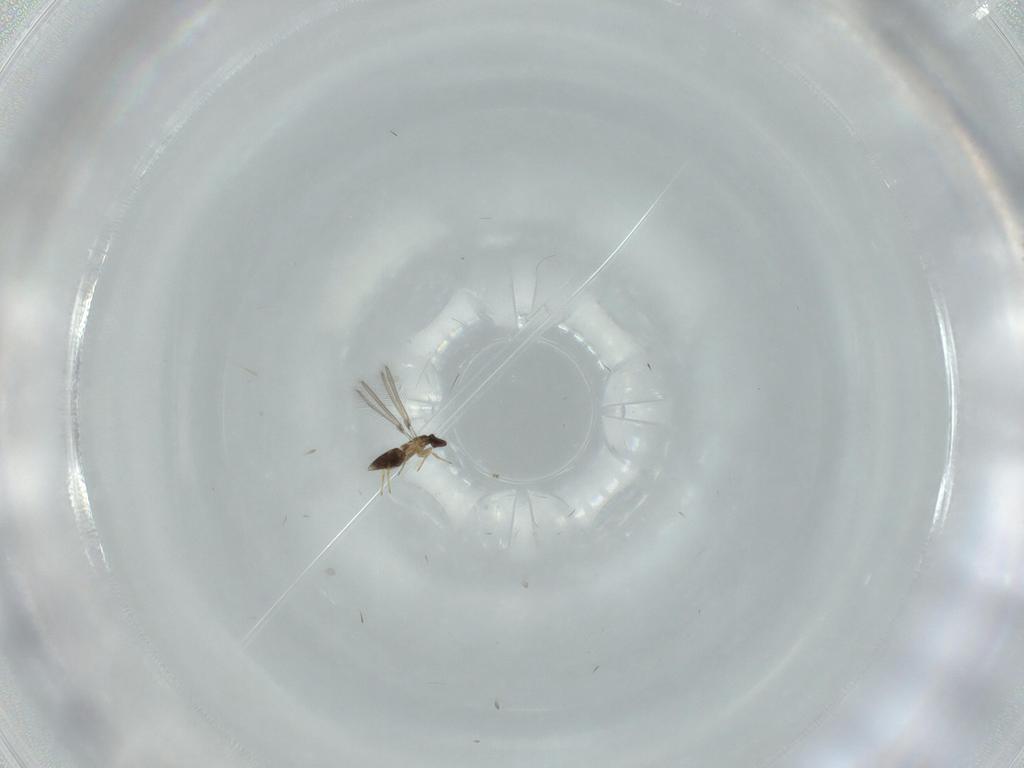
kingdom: Animalia
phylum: Arthropoda
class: Insecta
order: Hymenoptera
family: Mymaridae
